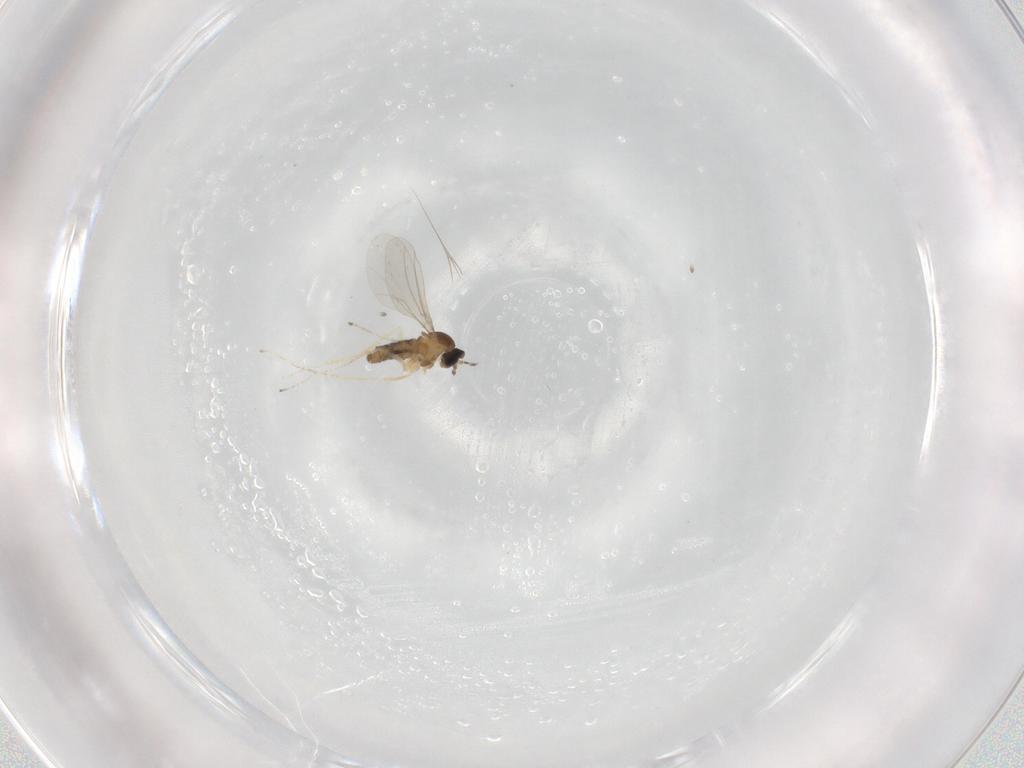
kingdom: Animalia
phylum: Arthropoda
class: Insecta
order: Diptera
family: Cecidomyiidae
